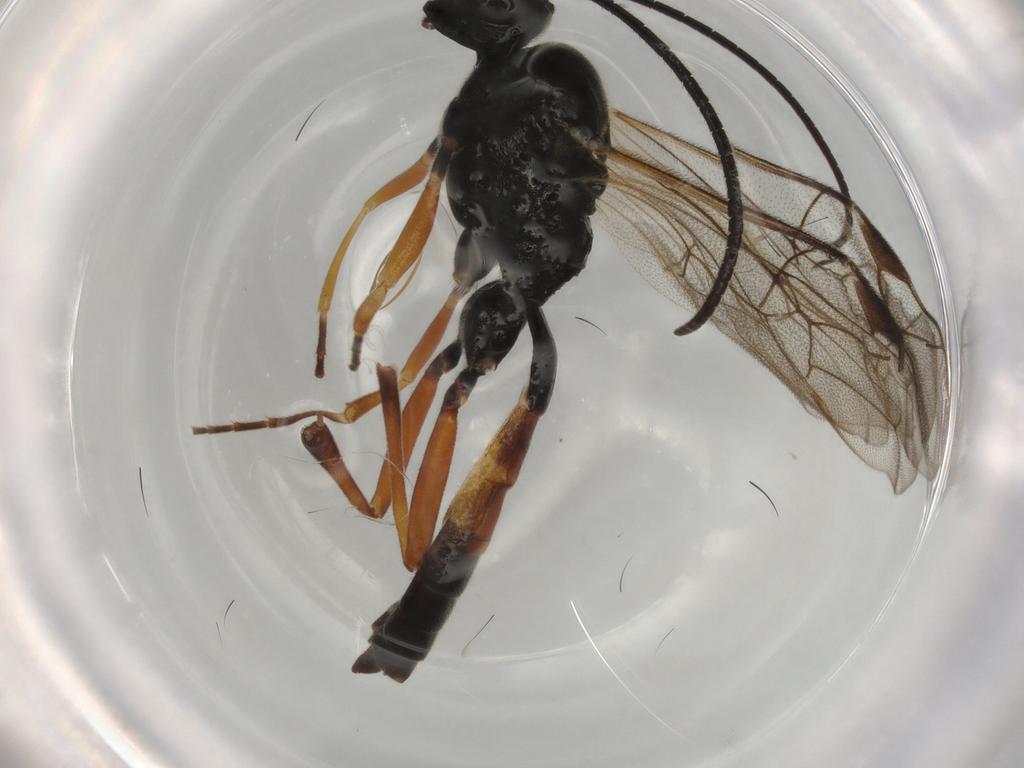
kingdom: Animalia
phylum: Arthropoda
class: Insecta
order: Hymenoptera
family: Formicidae
